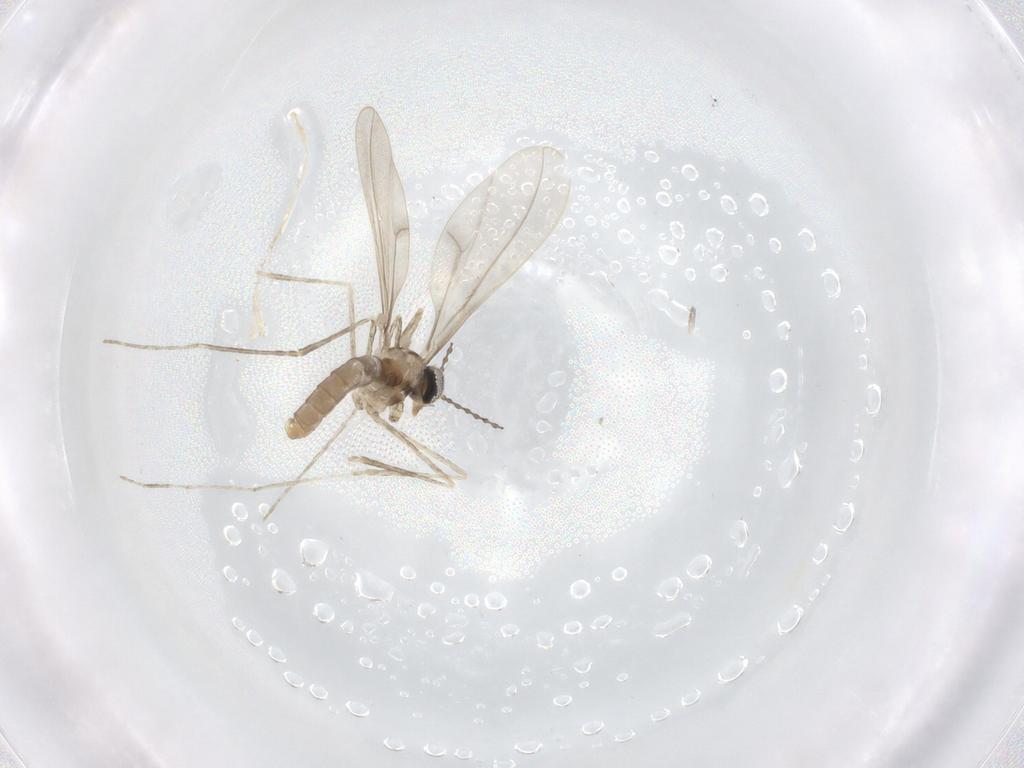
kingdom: Animalia
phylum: Arthropoda
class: Insecta
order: Diptera
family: Cecidomyiidae
